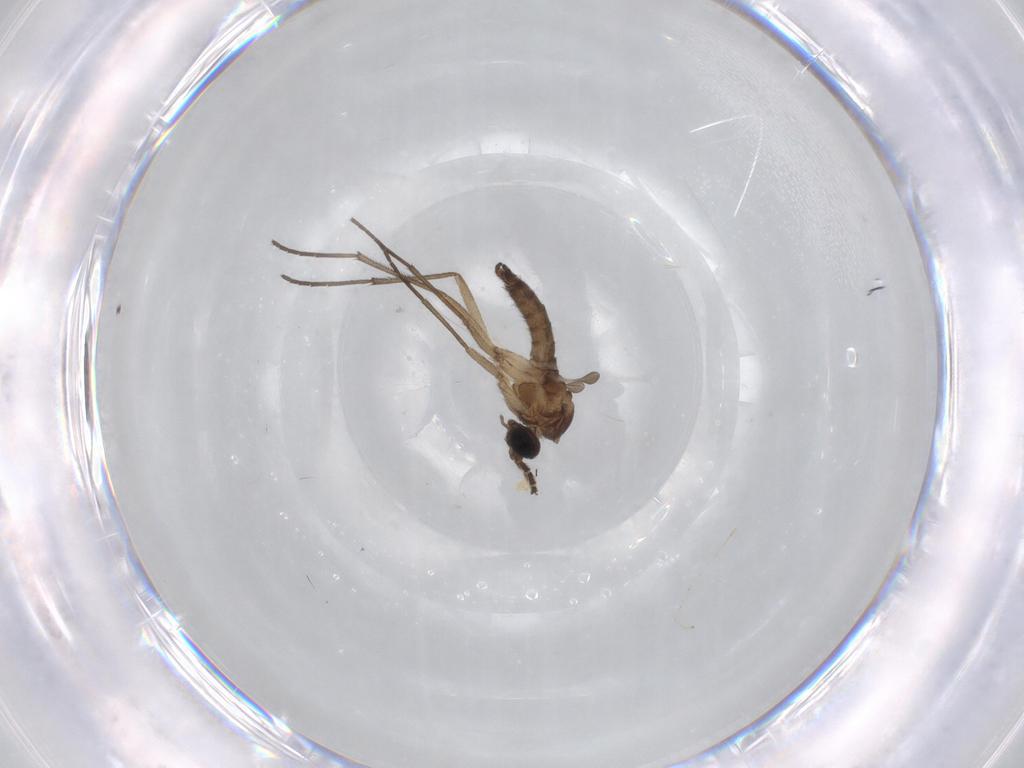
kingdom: Animalia
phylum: Arthropoda
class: Insecta
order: Diptera
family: Sciaridae
